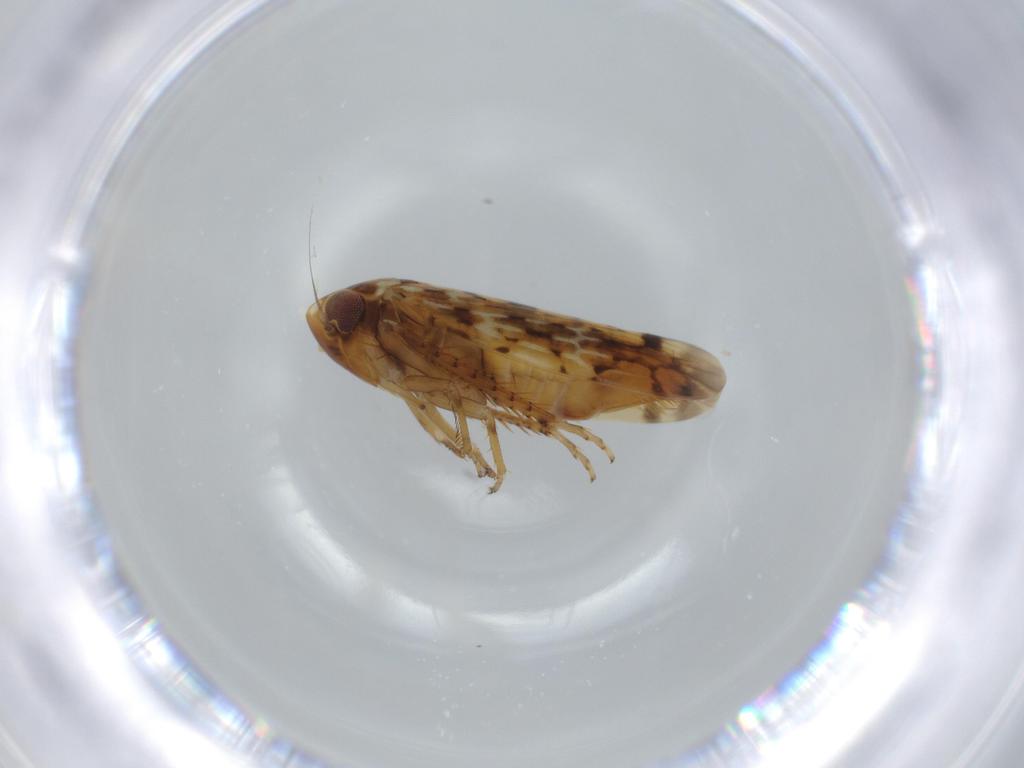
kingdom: Animalia
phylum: Arthropoda
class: Insecta
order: Hemiptera
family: Cicadellidae
